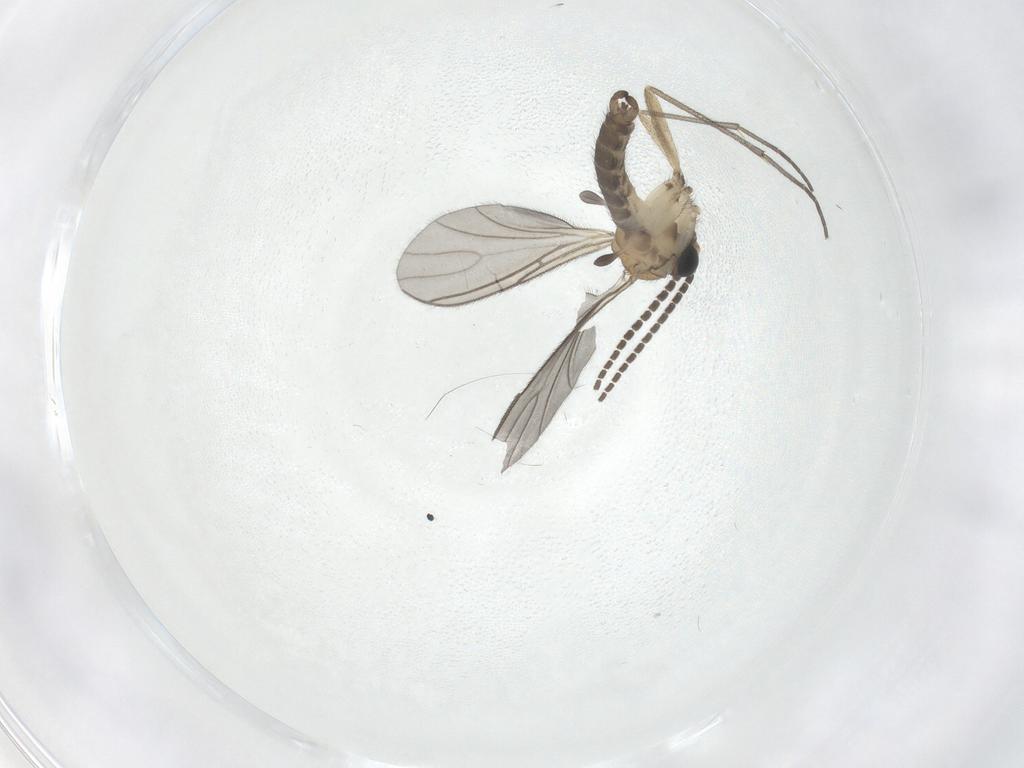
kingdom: Animalia
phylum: Arthropoda
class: Insecta
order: Diptera
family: Sciaridae
